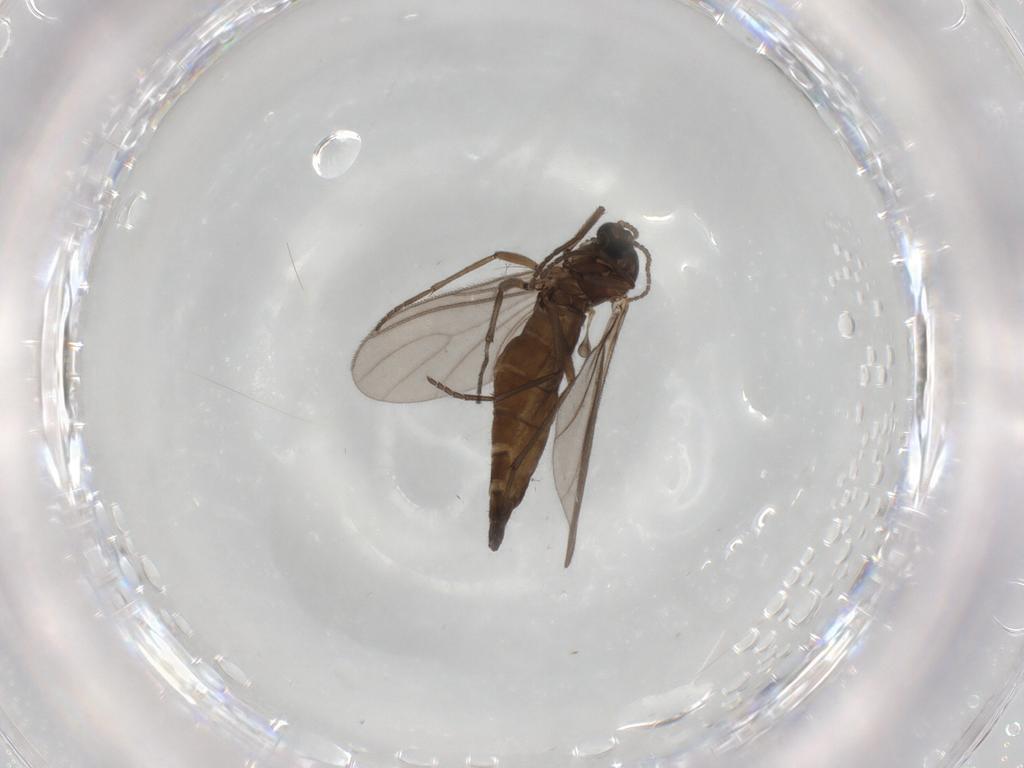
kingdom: Animalia
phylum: Arthropoda
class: Insecta
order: Diptera
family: Sciaridae
